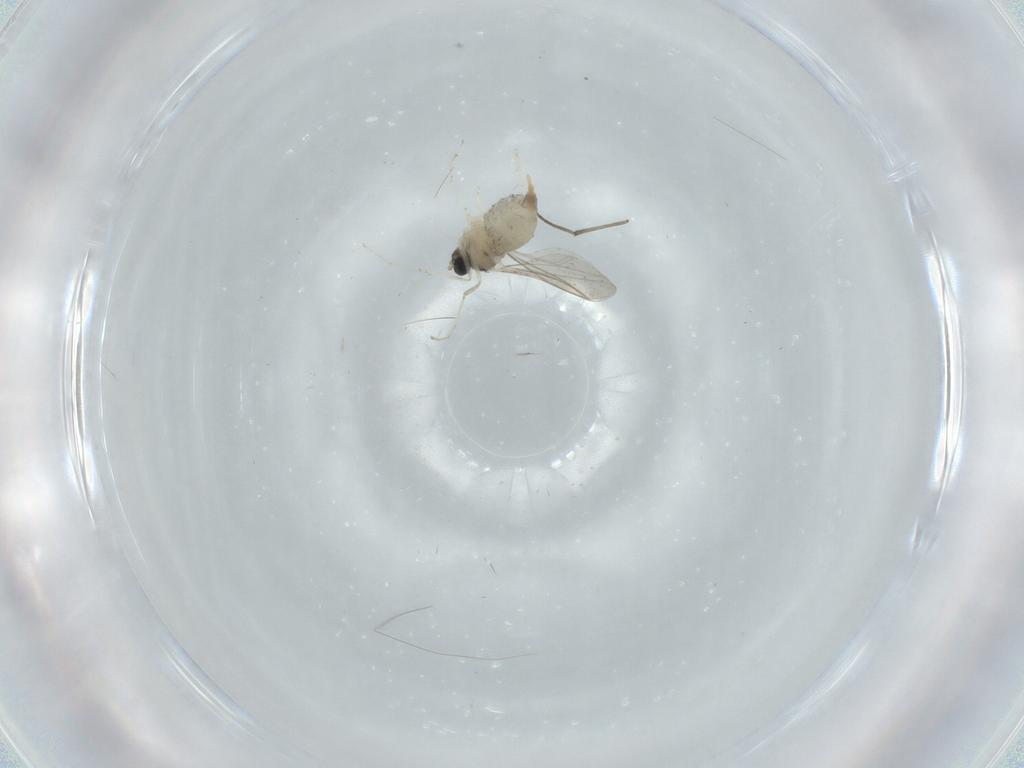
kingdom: Animalia
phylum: Arthropoda
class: Insecta
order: Diptera
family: Cecidomyiidae
